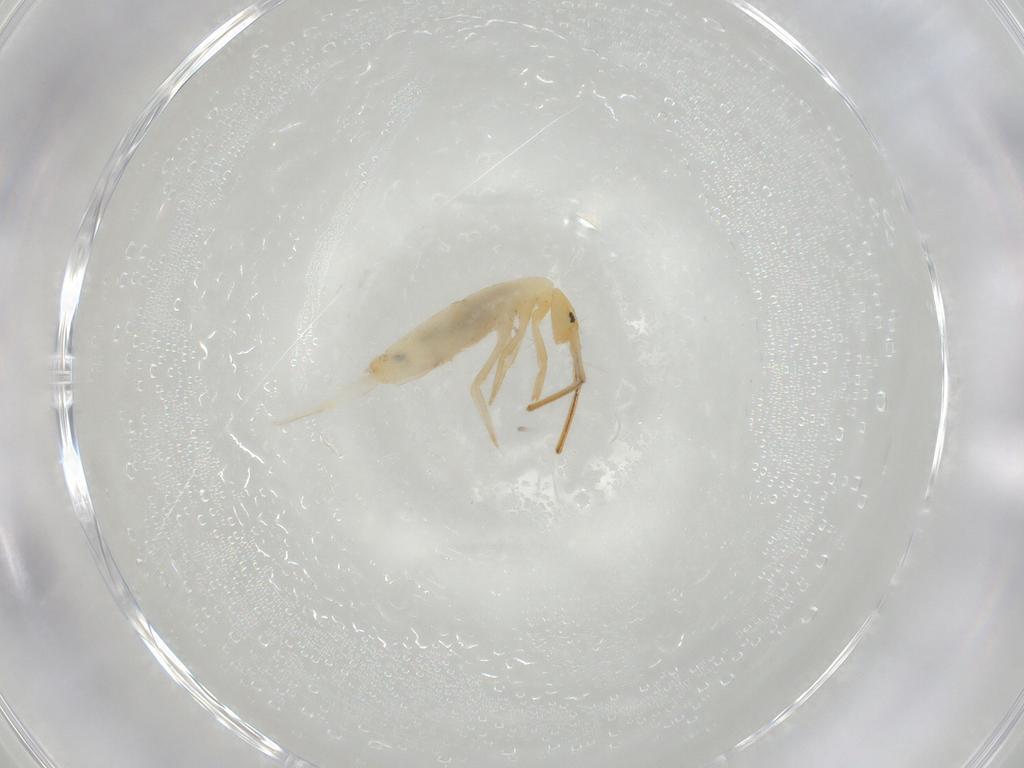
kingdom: Animalia
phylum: Arthropoda
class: Collembola
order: Entomobryomorpha
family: Entomobryidae
